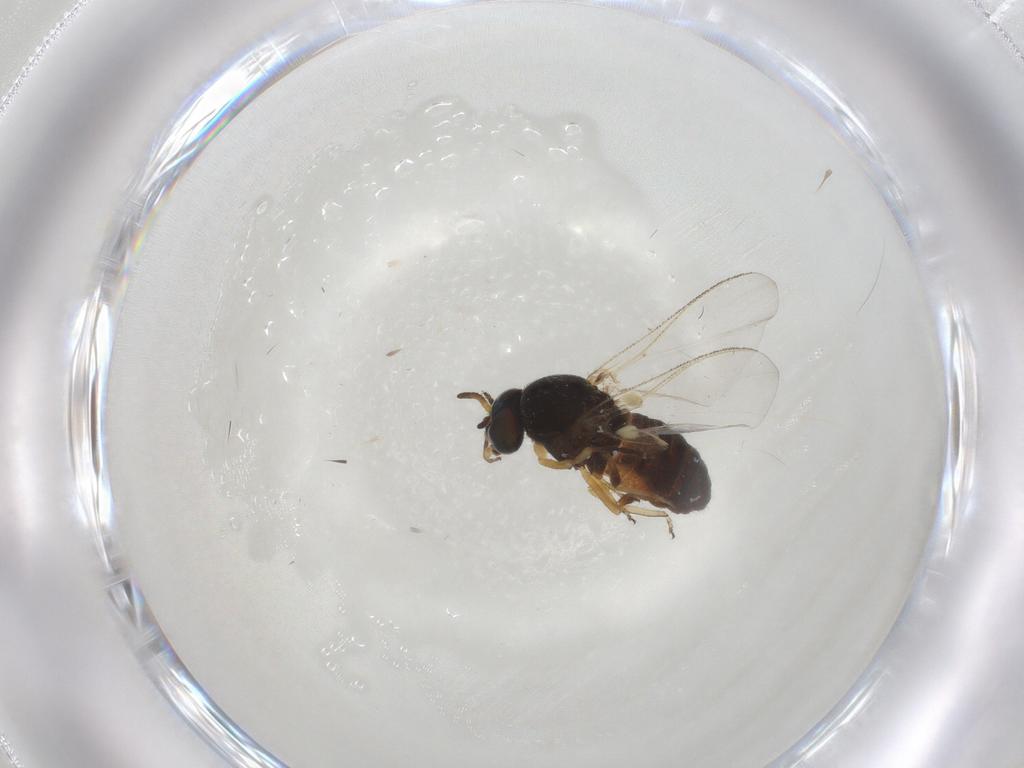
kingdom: Animalia
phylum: Arthropoda
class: Insecta
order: Diptera
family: Simuliidae
